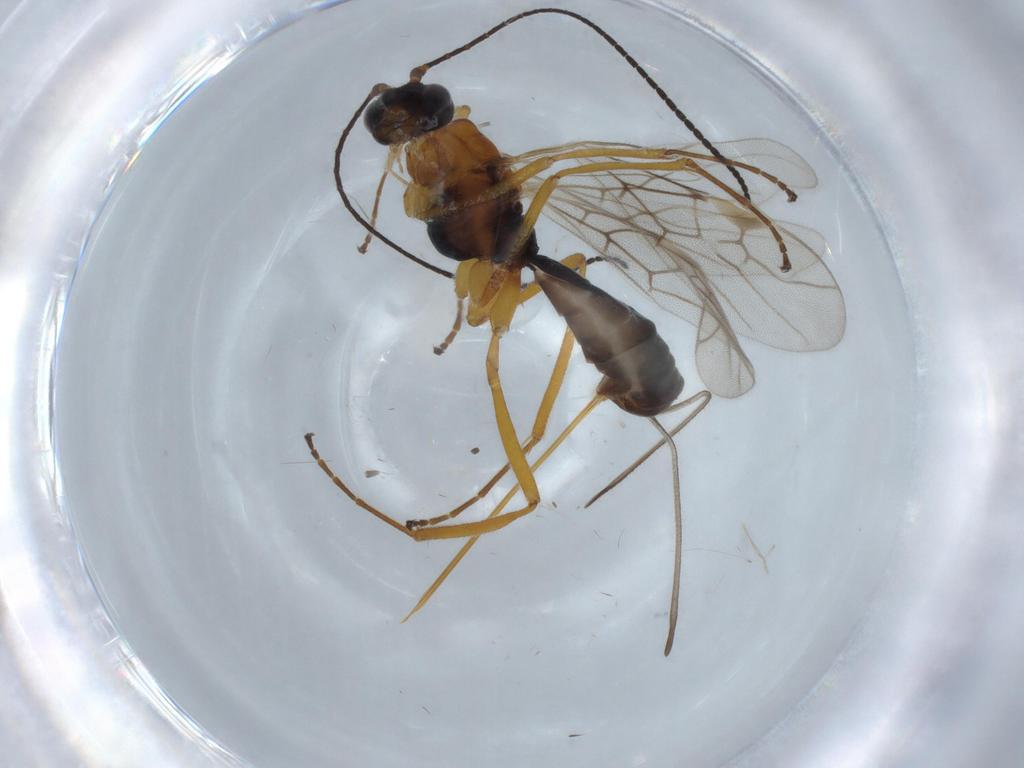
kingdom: Animalia
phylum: Arthropoda
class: Insecta
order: Hymenoptera
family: Braconidae
